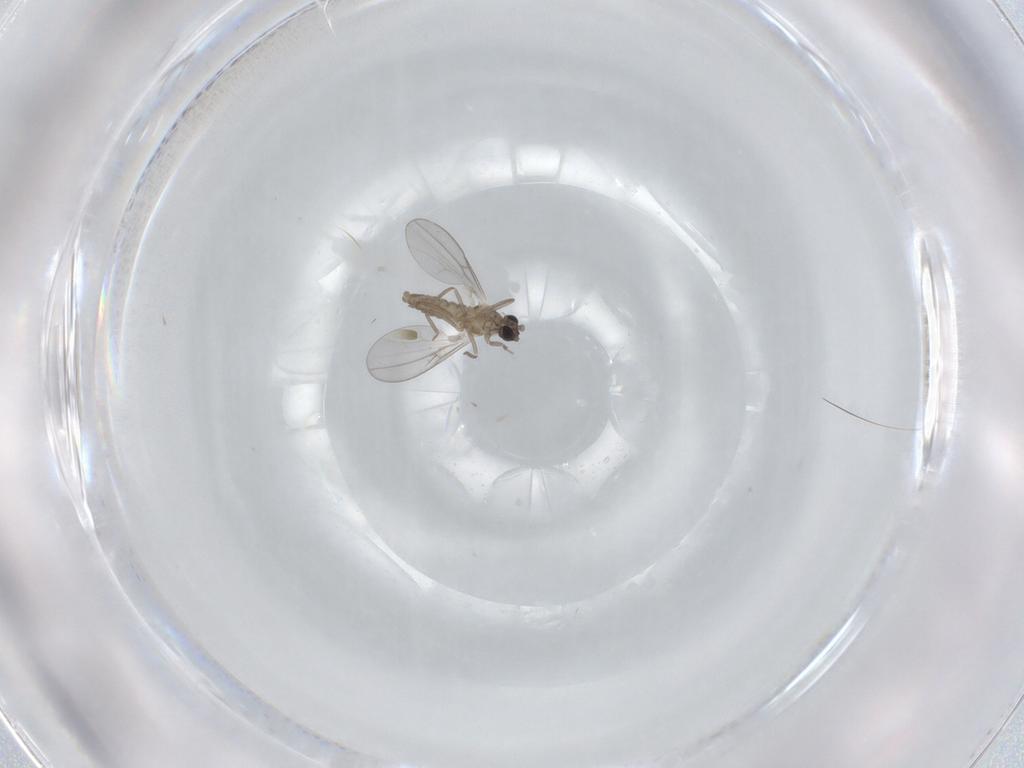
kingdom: Animalia
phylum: Arthropoda
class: Insecta
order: Diptera
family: Cecidomyiidae
